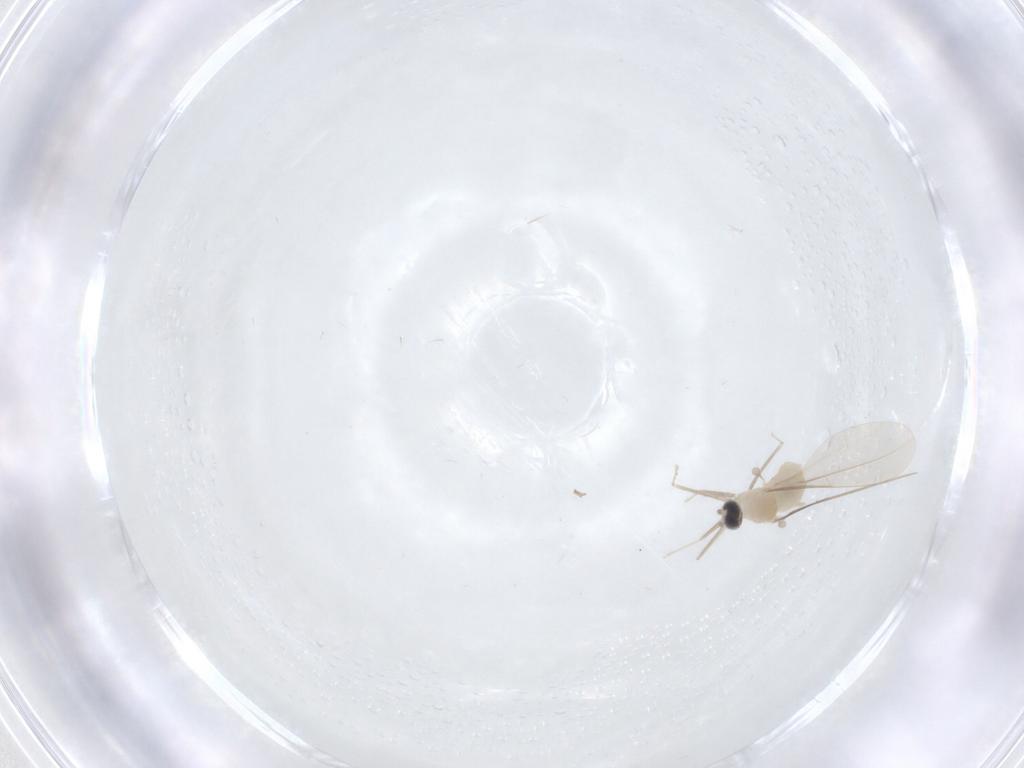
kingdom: Animalia
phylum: Arthropoda
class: Insecta
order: Diptera
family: Cecidomyiidae
